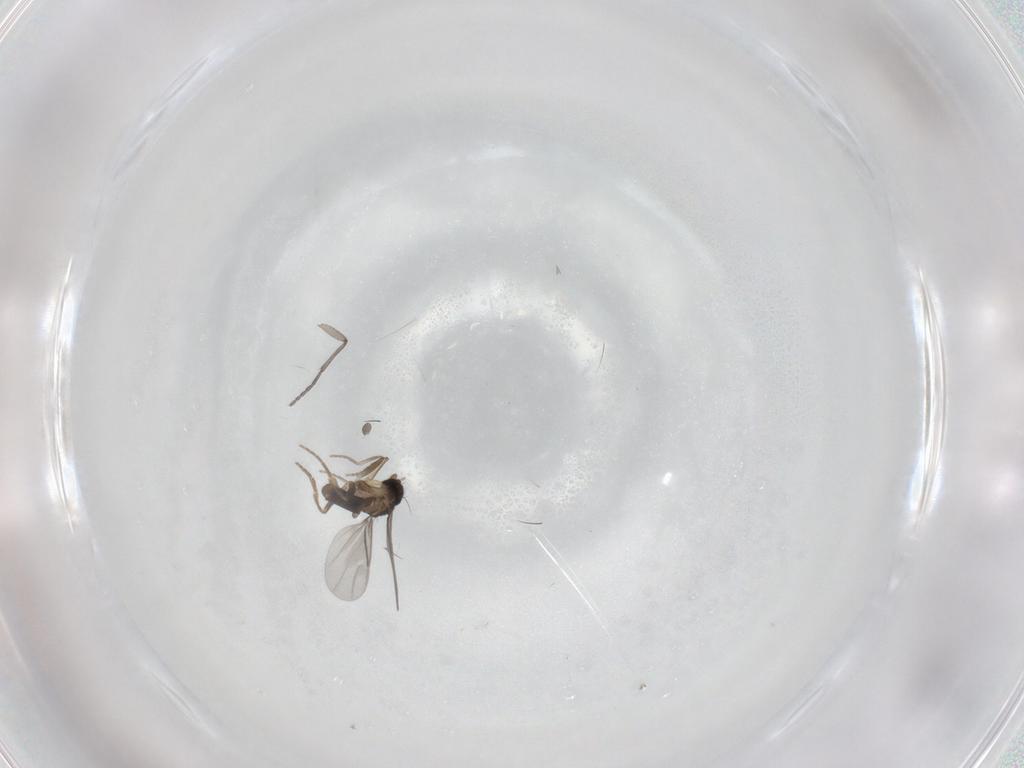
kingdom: Animalia
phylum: Arthropoda
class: Insecta
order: Diptera
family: Sciaridae
